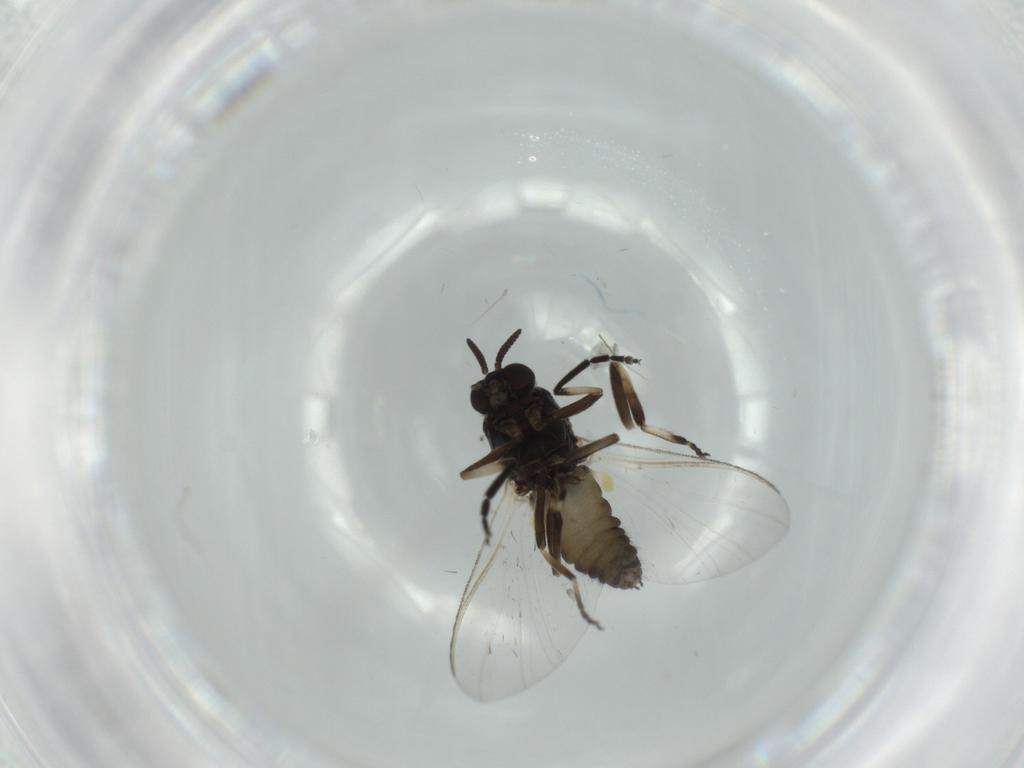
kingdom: Animalia
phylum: Arthropoda
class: Insecta
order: Diptera
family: Empididae
